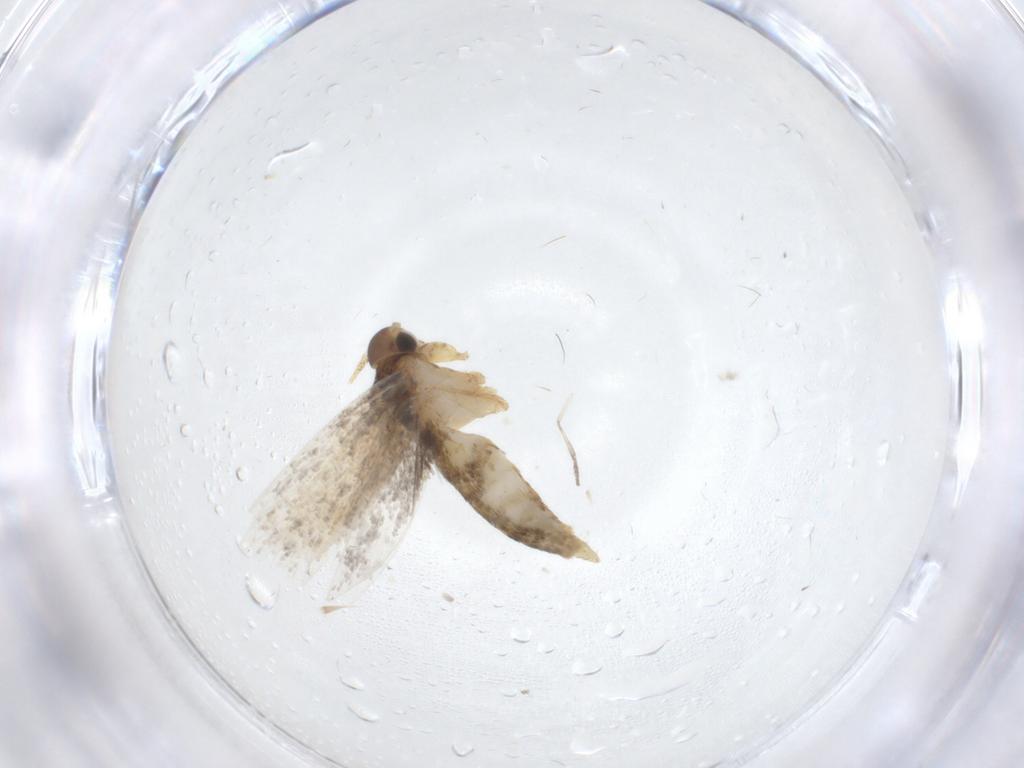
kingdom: Animalia
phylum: Arthropoda
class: Insecta
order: Lepidoptera
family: Oecophoridae
